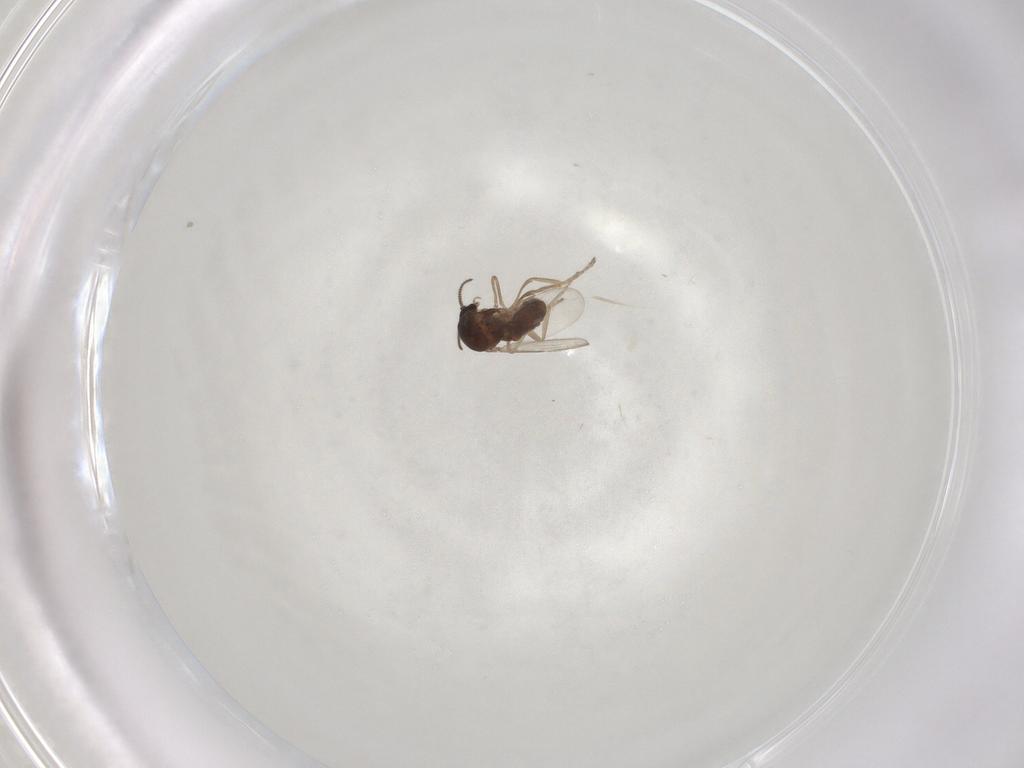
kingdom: Animalia
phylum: Arthropoda
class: Insecta
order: Diptera
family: Ceratopogonidae
